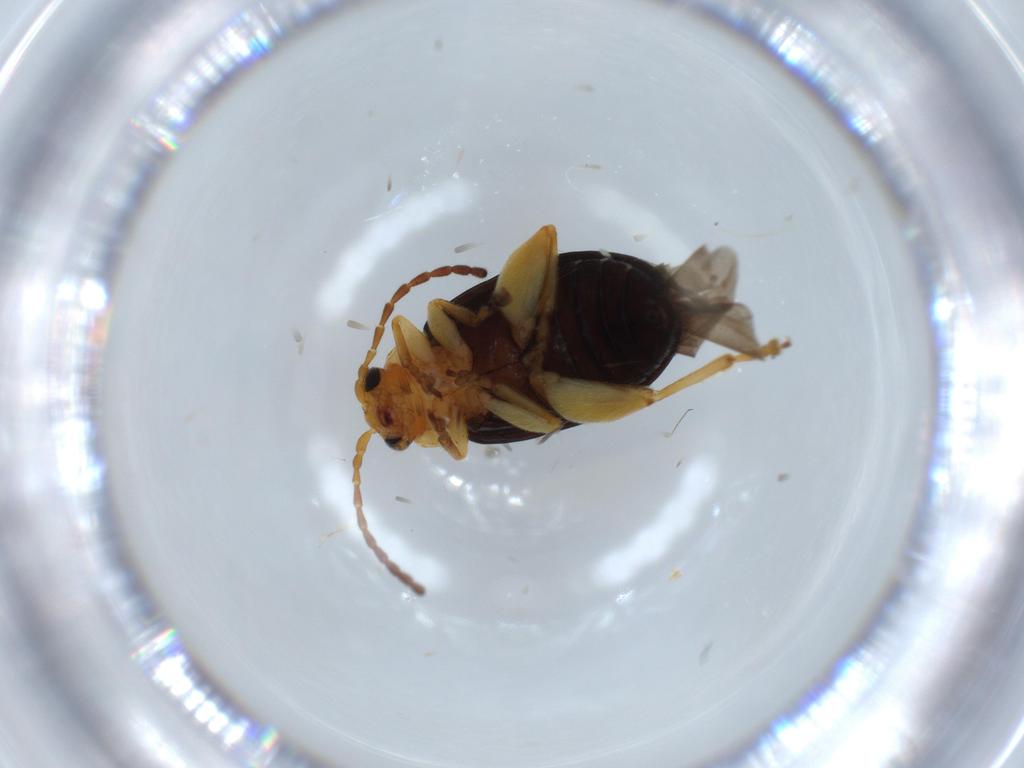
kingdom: Animalia
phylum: Arthropoda
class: Insecta
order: Coleoptera
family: Chrysomelidae
